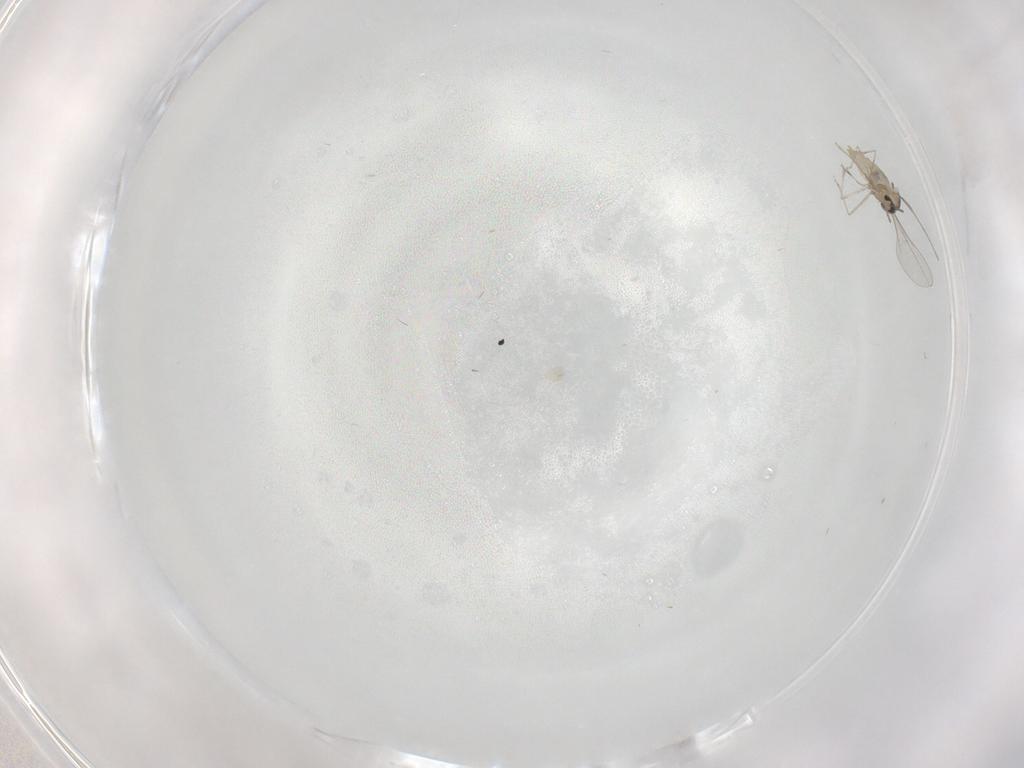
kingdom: Animalia
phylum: Arthropoda
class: Insecta
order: Diptera
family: Cecidomyiidae
